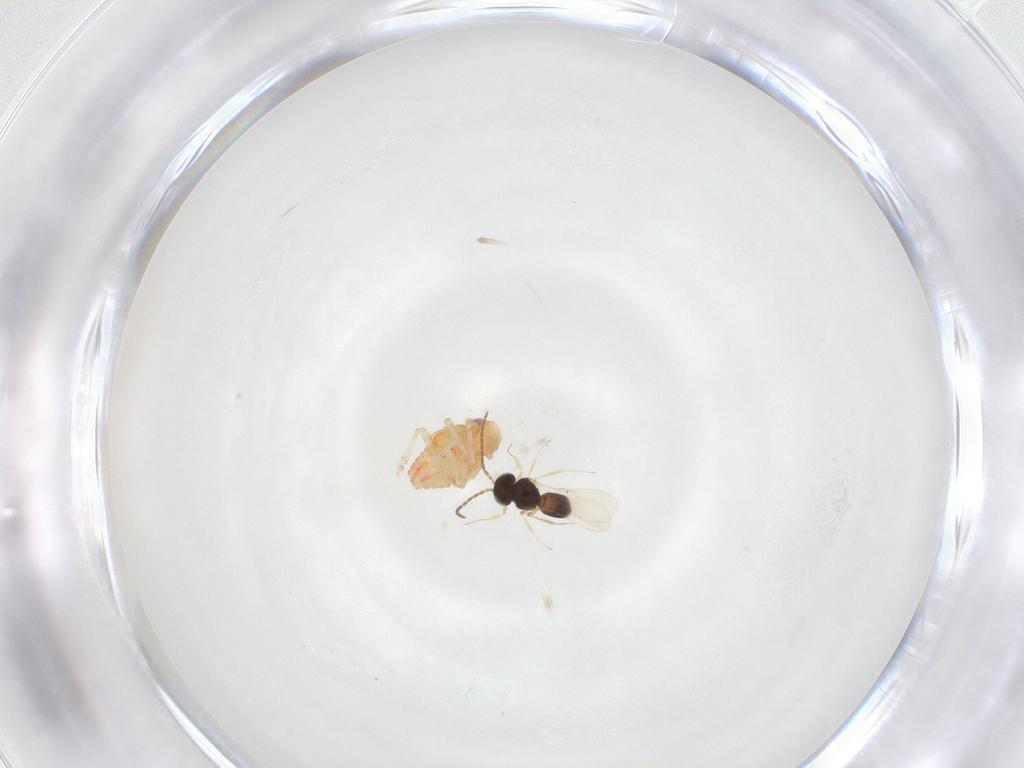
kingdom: Animalia
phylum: Arthropoda
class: Insecta
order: Hemiptera
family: Issidae
